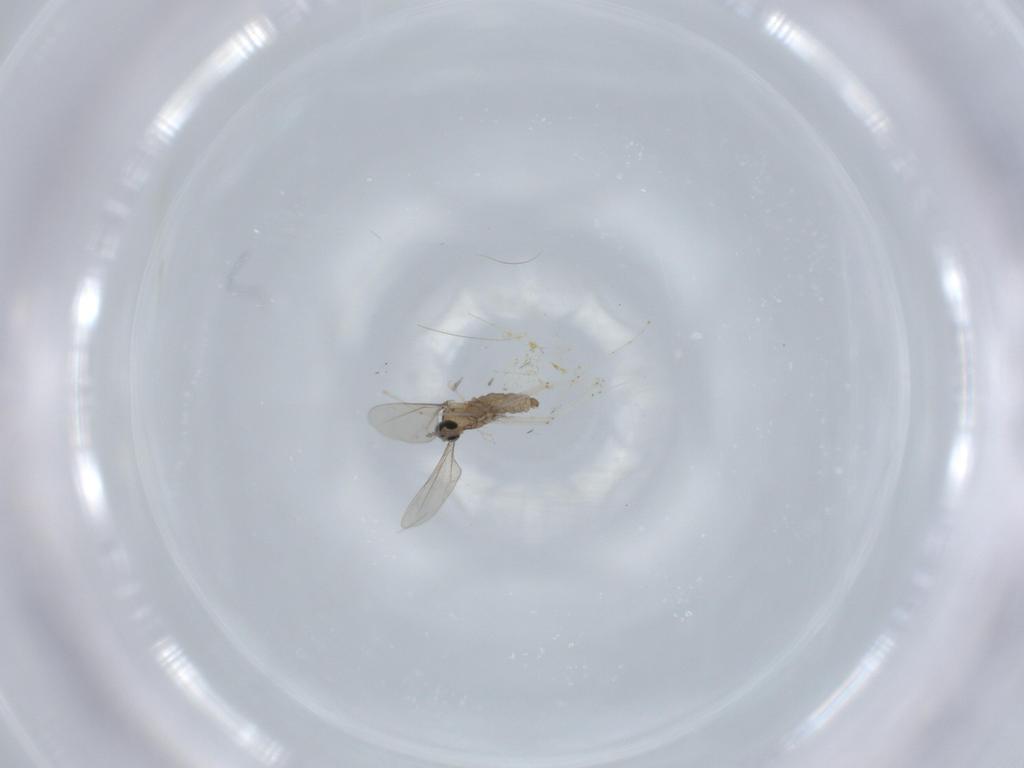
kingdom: Animalia
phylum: Arthropoda
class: Insecta
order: Diptera
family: Cecidomyiidae
